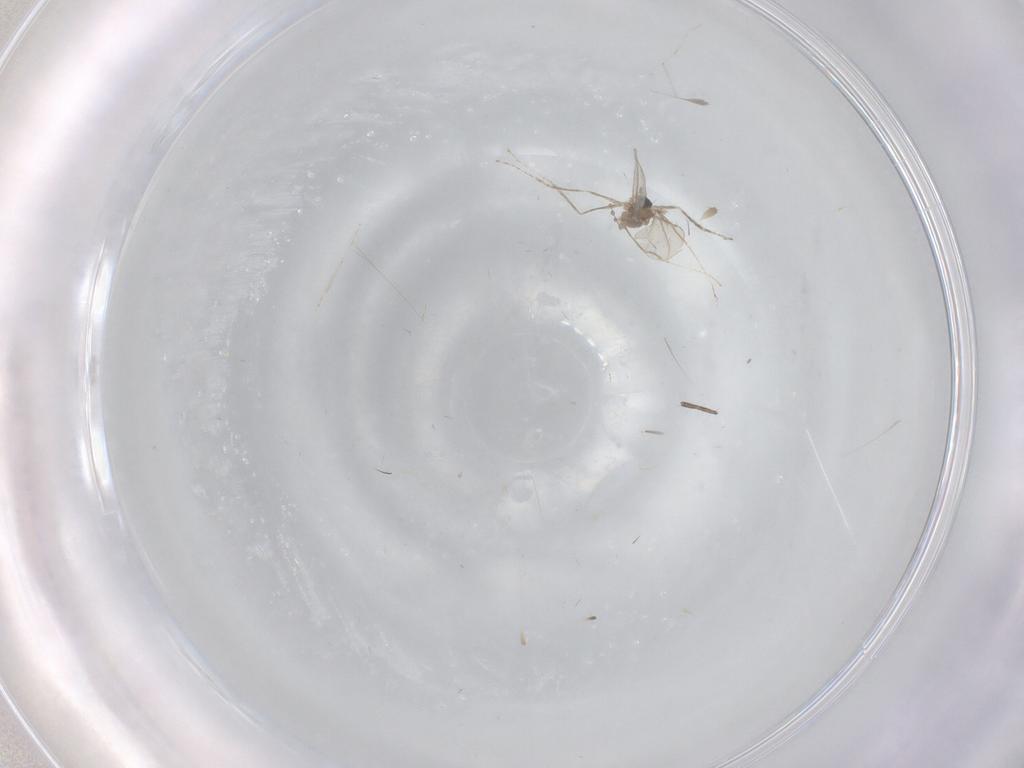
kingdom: Animalia
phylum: Arthropoda
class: Insecta
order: Diptera
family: Cecidomyiidae
